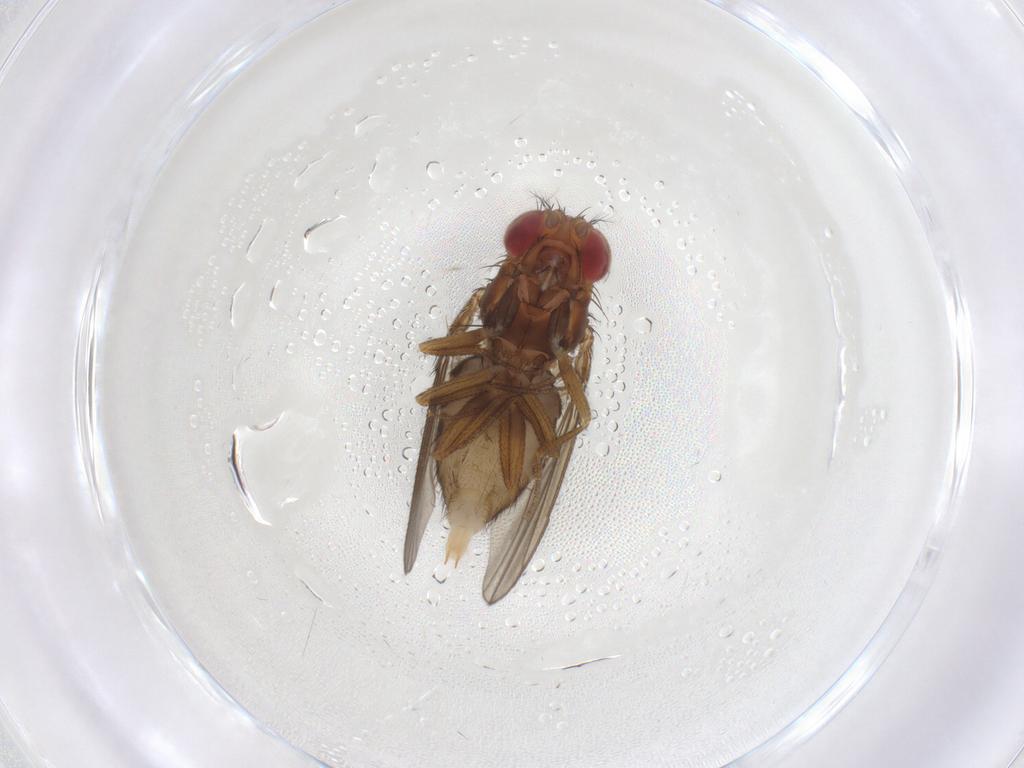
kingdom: Animalia
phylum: Arthropoda
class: Insecta
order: Diptera
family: Drosophilidae
